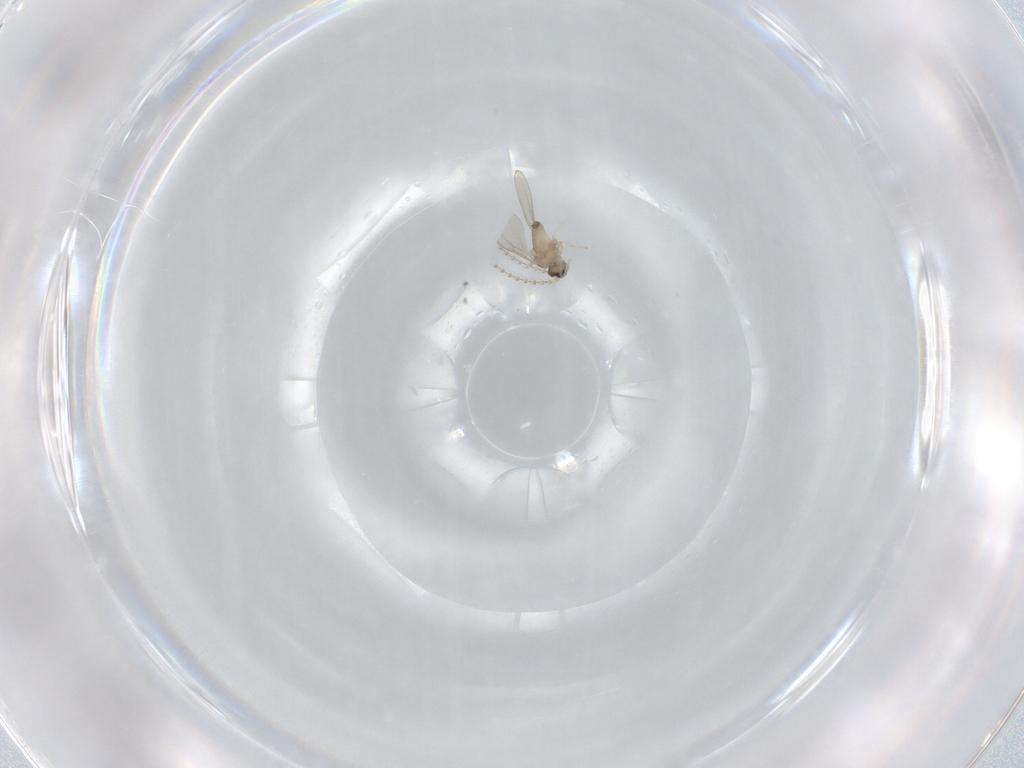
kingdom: Animalia
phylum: Arthropoda
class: Insecta
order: Diptera
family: Cecidomyiidae
